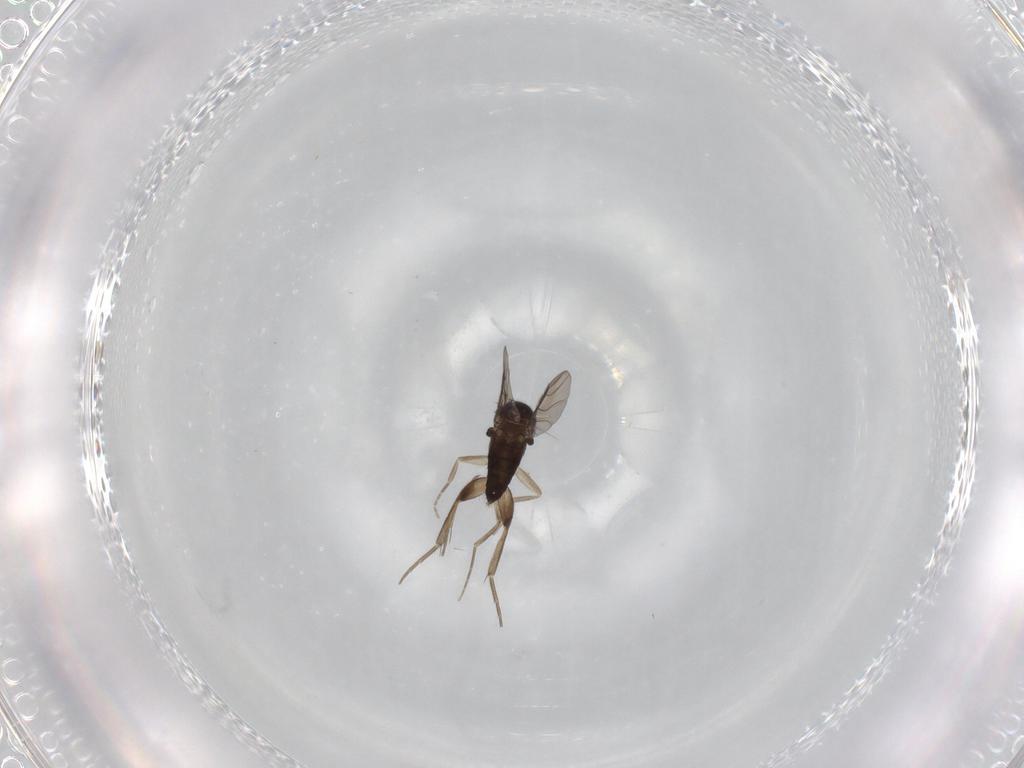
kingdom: Animalia
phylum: Arthropoda
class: Insecta
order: Diptera
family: Phoridae
